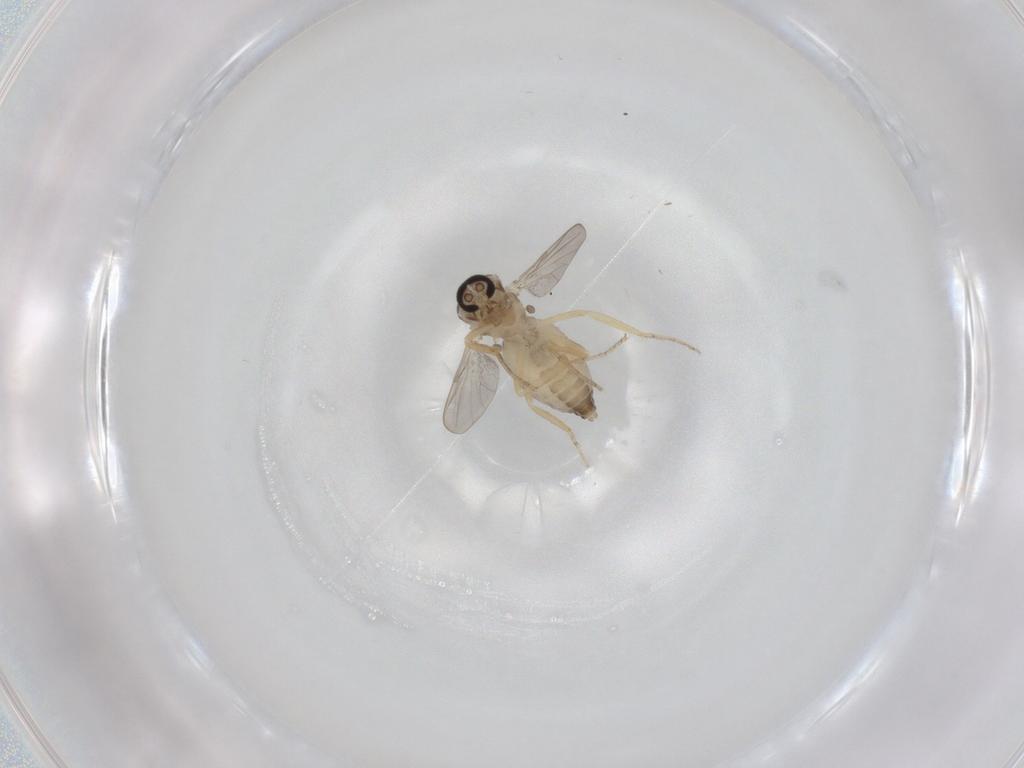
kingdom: Animalia
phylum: Arthropoda
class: Insecta
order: Diptera
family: Ceratopogonidae
